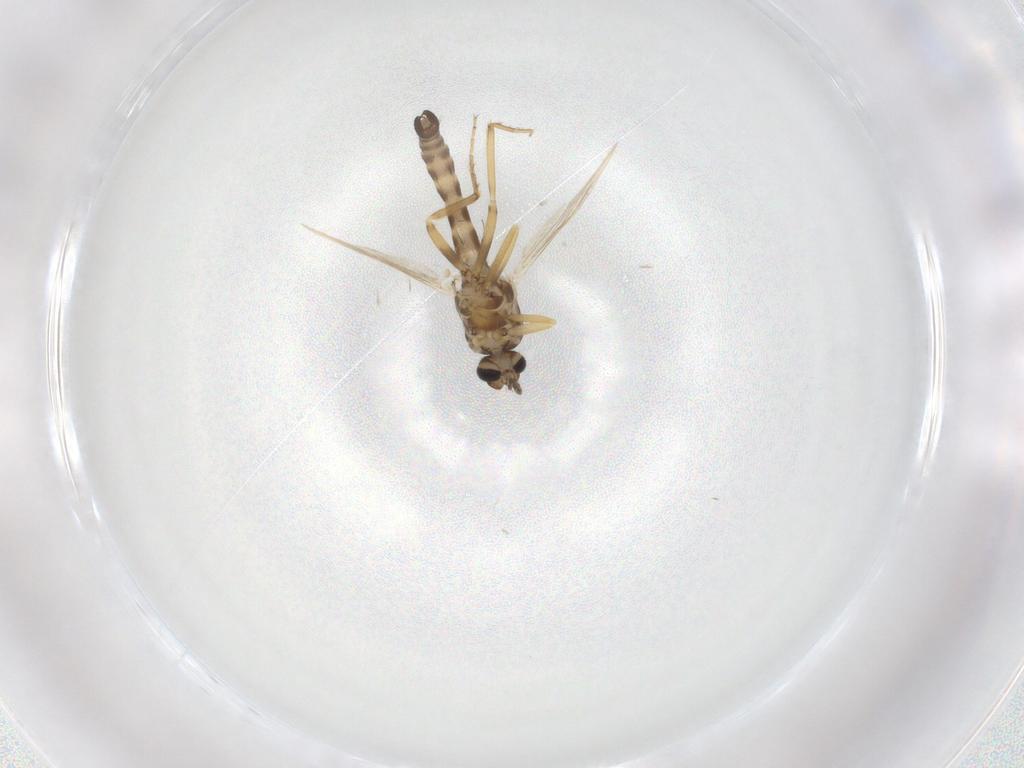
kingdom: Animalia
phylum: Arthropoda
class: Insecta
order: Diptera
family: Ceratopogonidae
